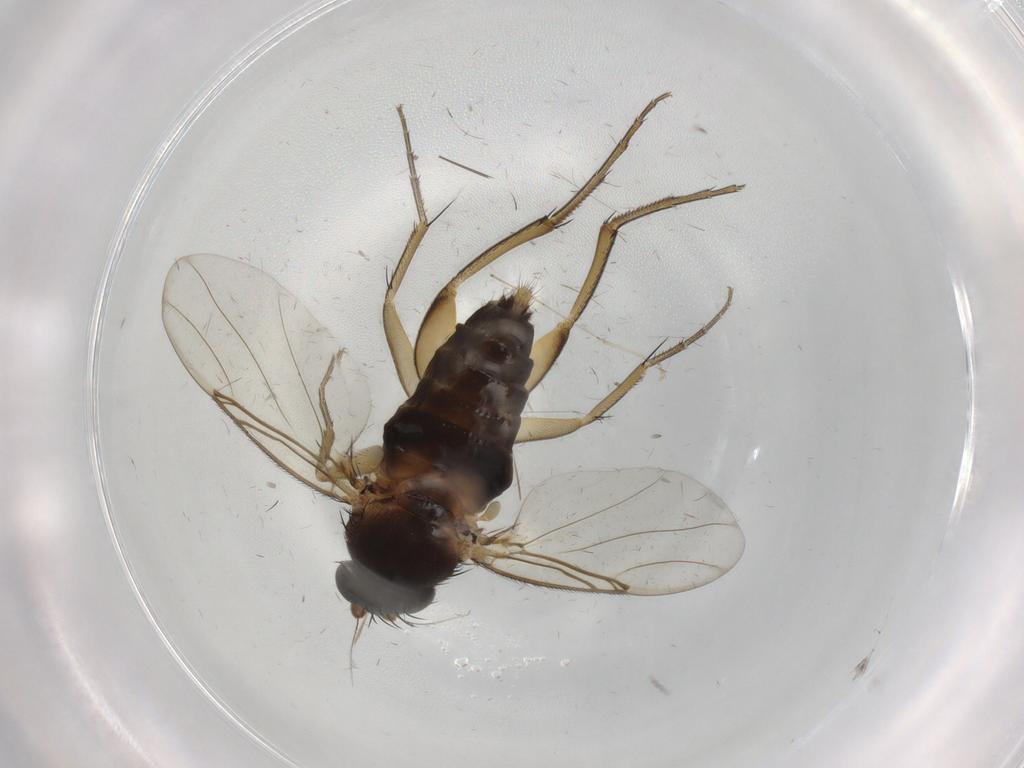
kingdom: Animalia
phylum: Arthropoda
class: Insecta
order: Diptera
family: Phoridae
